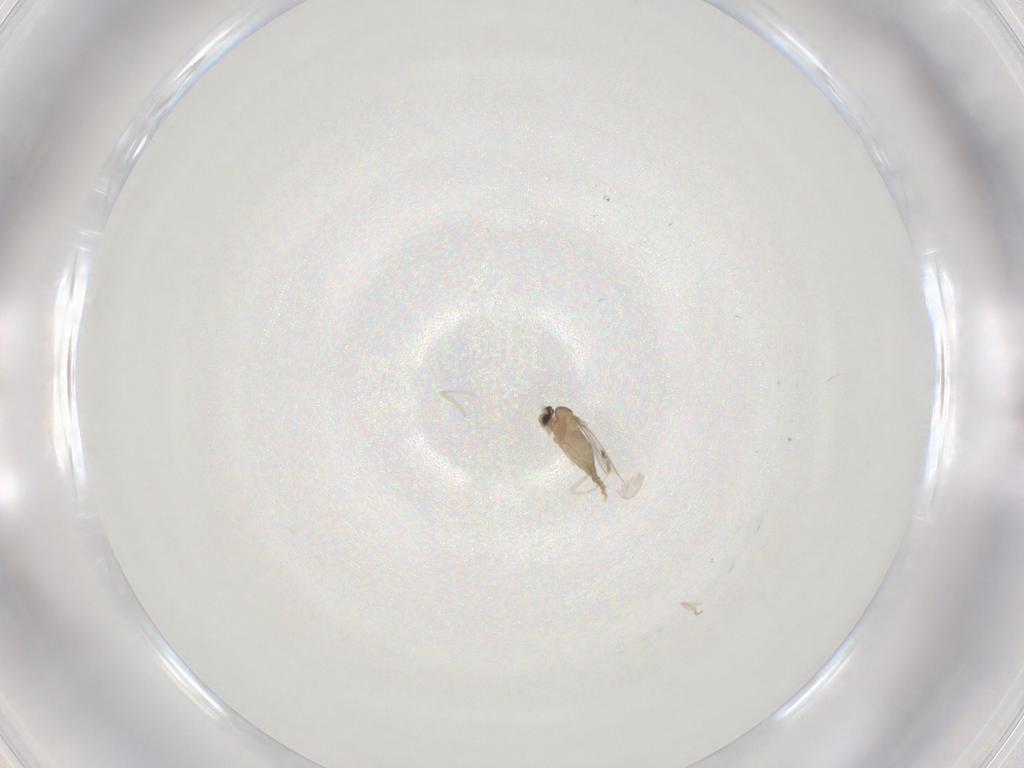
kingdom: Animalia
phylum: Arthropoda
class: Insecta
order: Diptera
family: Cecidomyiidae
